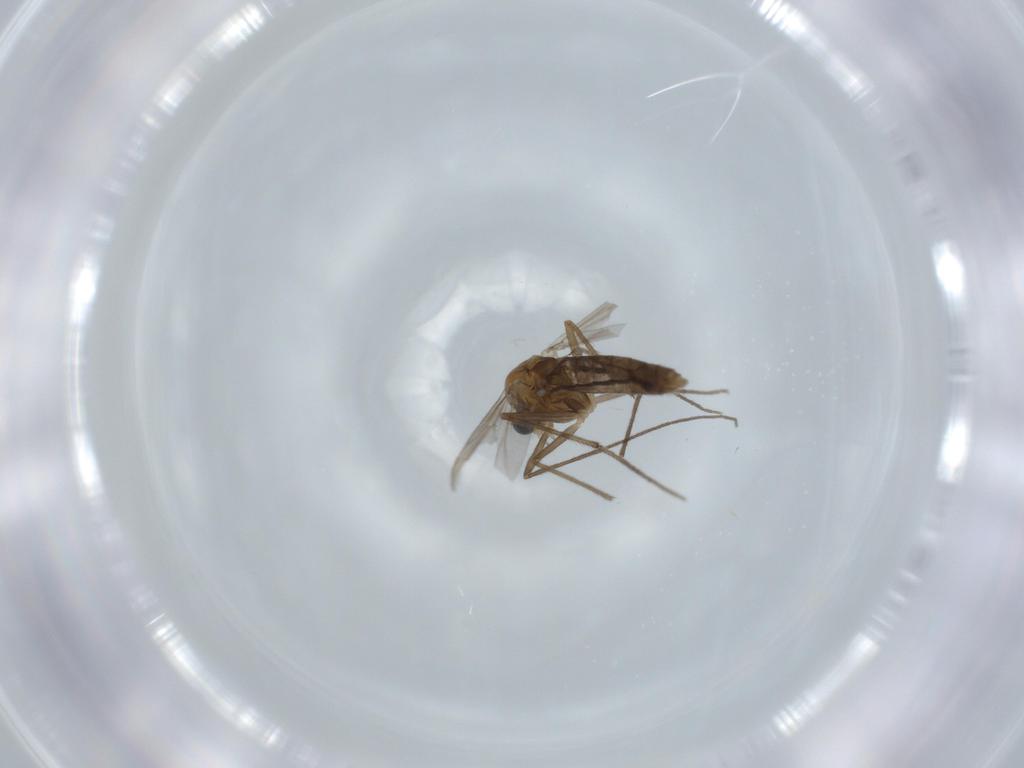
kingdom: Animalia
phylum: Arthropoda
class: Insecta
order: Diptera
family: Chironomidae
